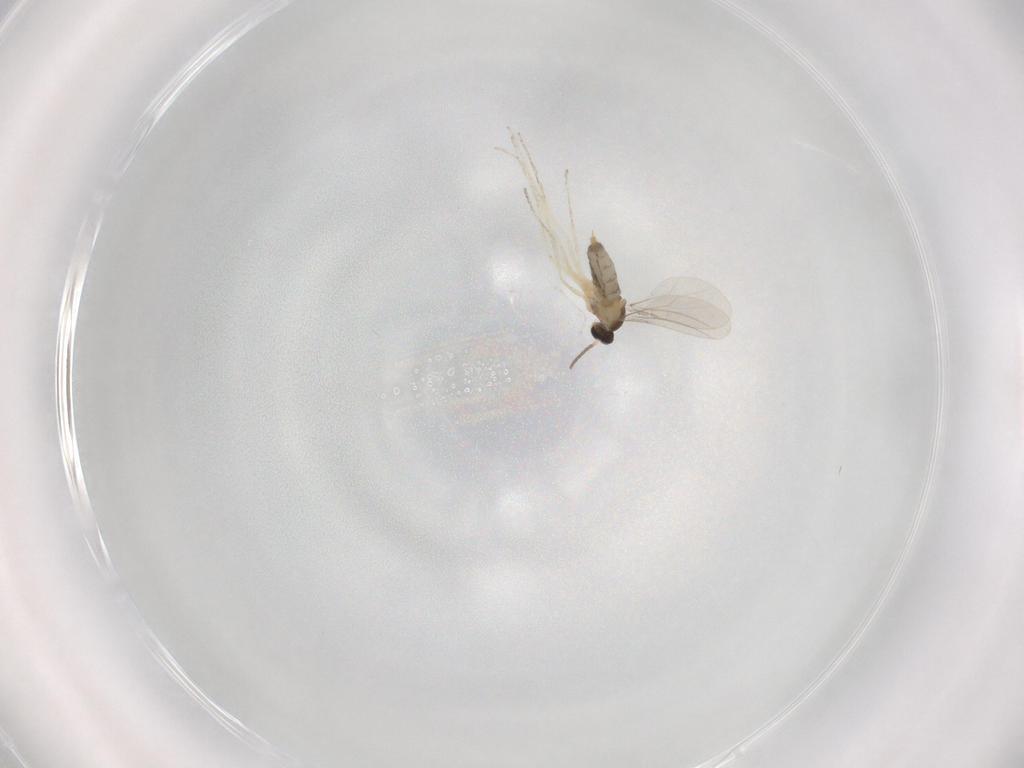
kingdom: Animalia
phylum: Arthropoda
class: Insecta
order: Diptera
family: Cecidomyiidae
